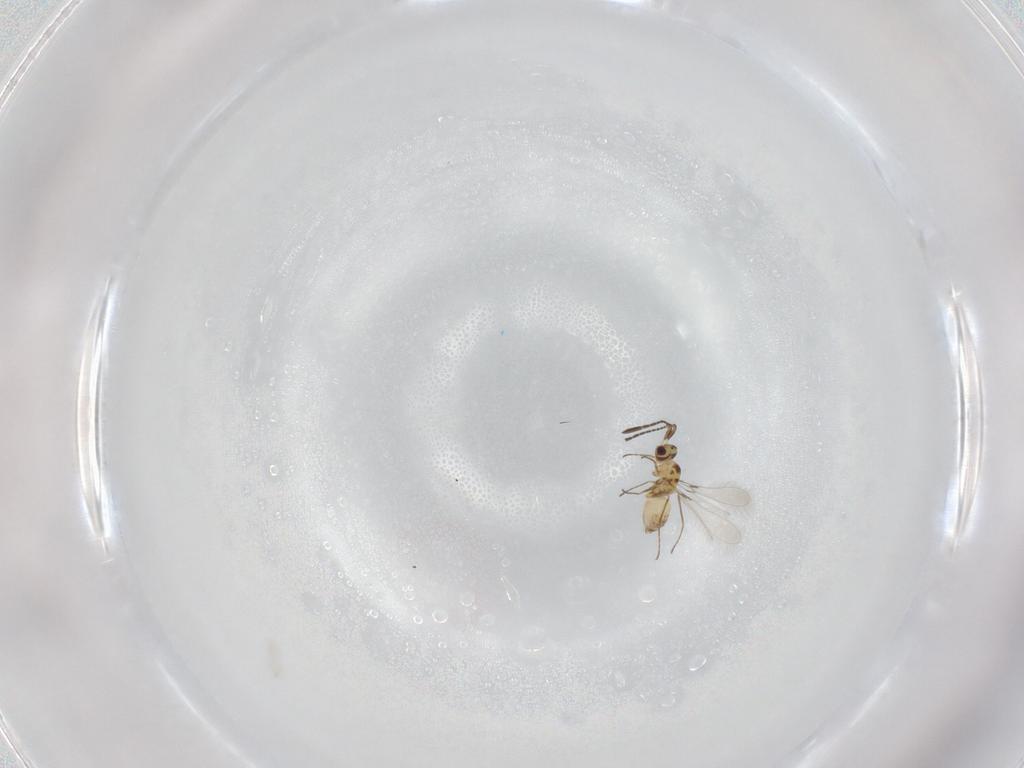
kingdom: Animalia
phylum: Arthropoda
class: Insecta
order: Hymenoptera
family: Mymaridae
